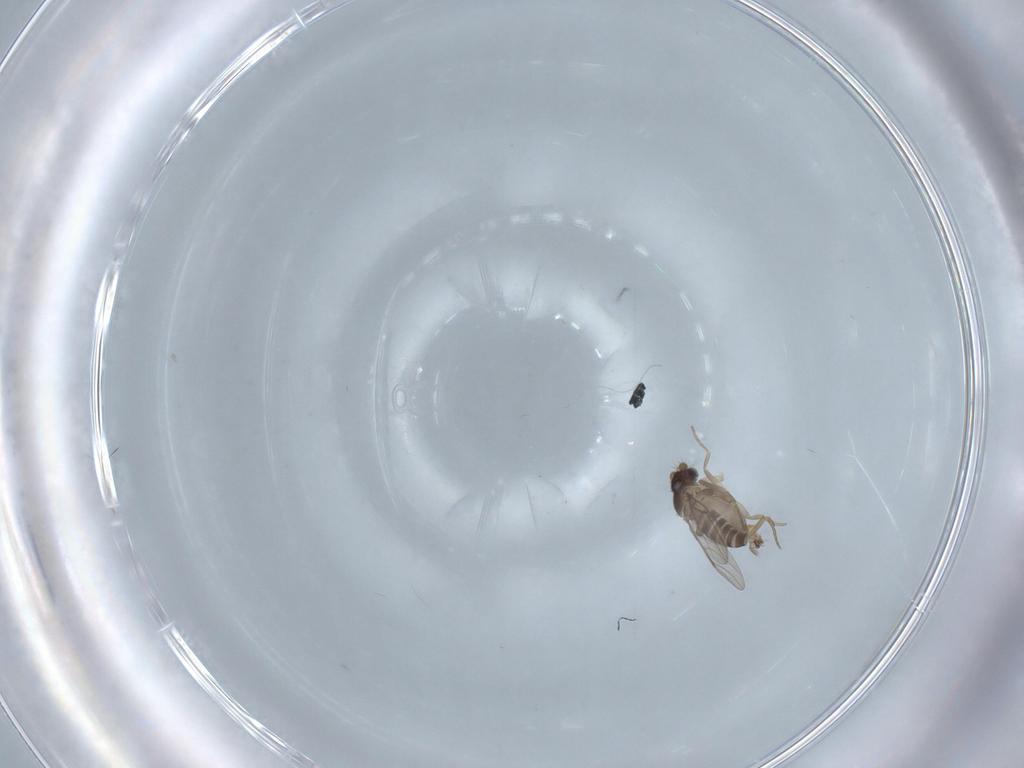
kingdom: Animalia
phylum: Arthropoda
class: Insecta
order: Diptera
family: Phoridae
